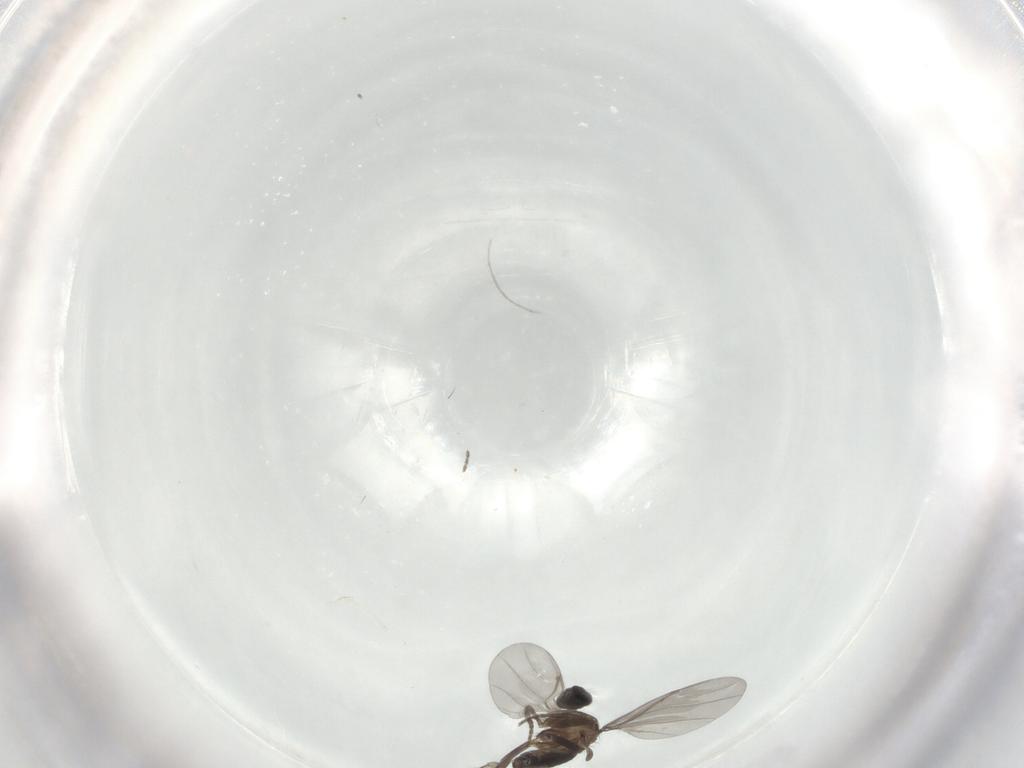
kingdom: Animalia
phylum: Arthropoda
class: Insecta
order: Diptera
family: Phoridae
